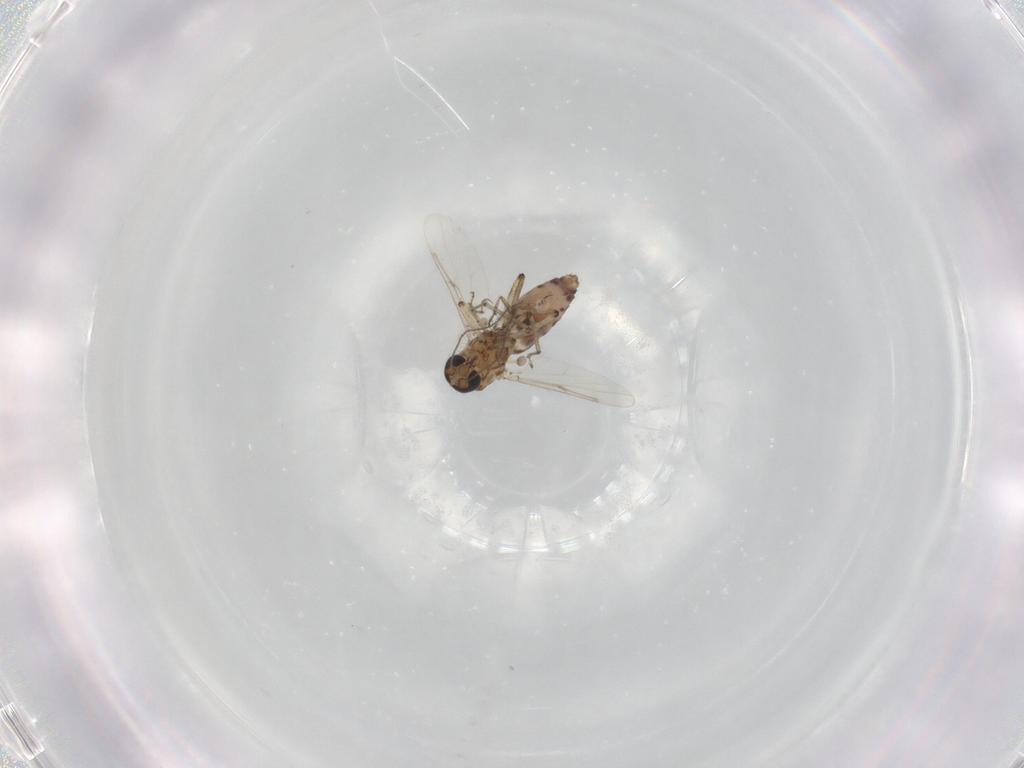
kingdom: Animalia
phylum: Arthropoda
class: Insecta
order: Diptera
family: Ceratopogonidae
